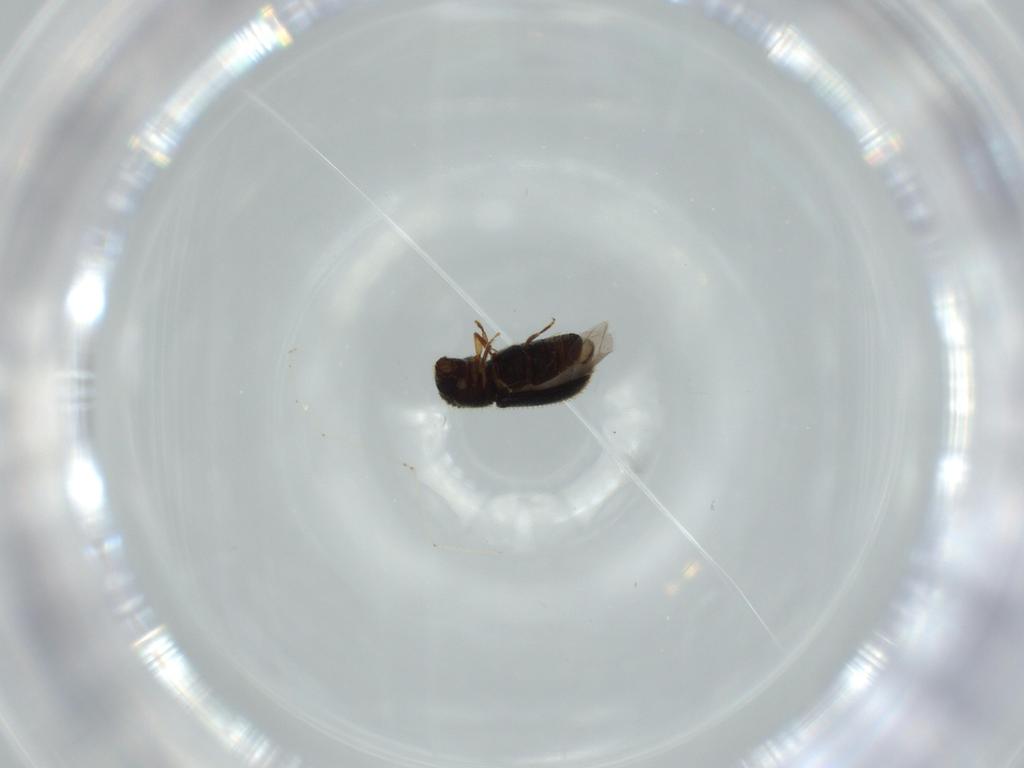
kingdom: Animalia
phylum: Arthropoda
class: Insecta
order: Coleoptera
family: Curculionidae
